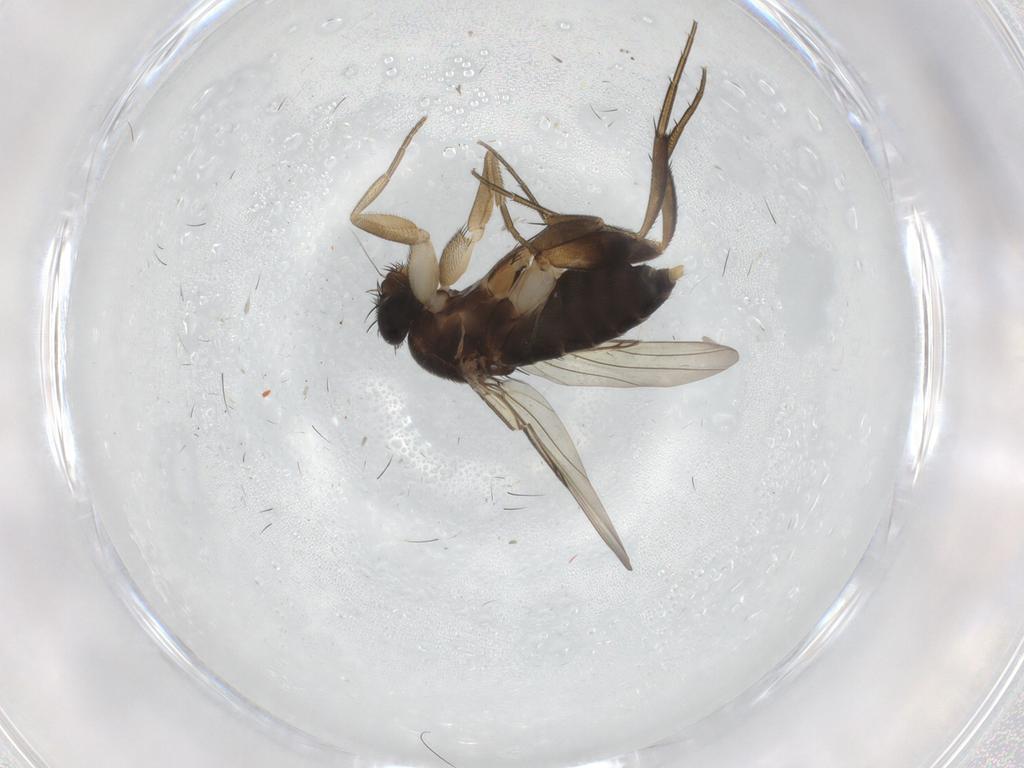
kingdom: Animalia
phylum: Arthropoda
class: Insecta
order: Diptera
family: Phoridae
